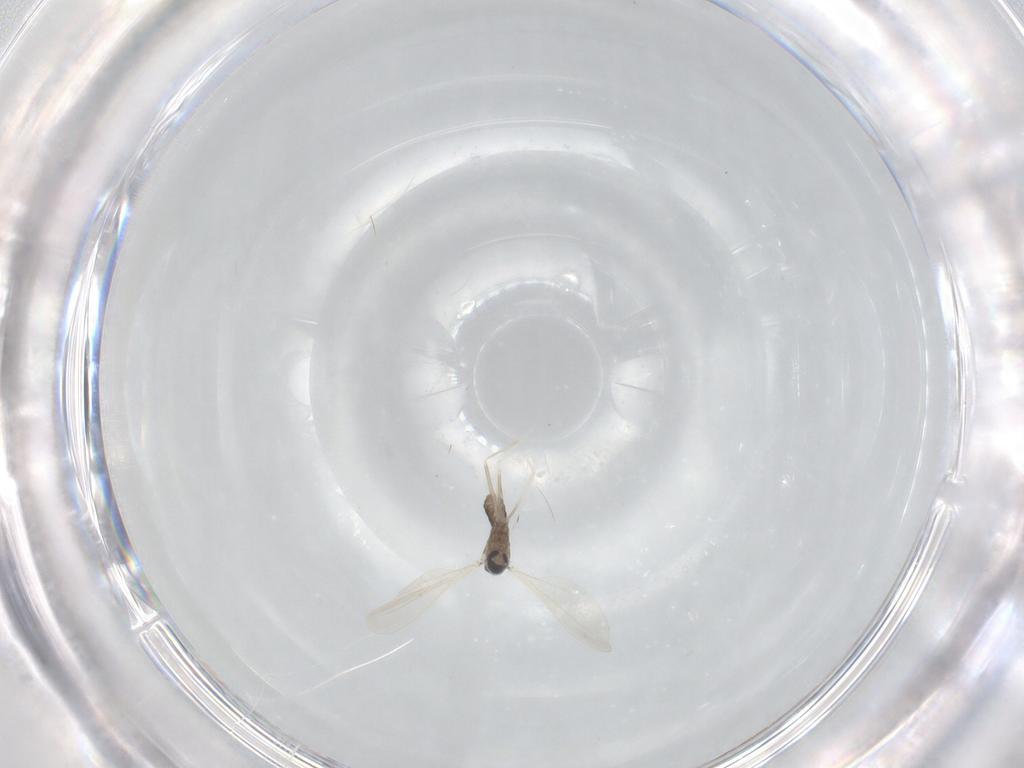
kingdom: Animalia
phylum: Arthropoda
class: Insecta
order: Diptera
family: Cecidomyiidae
